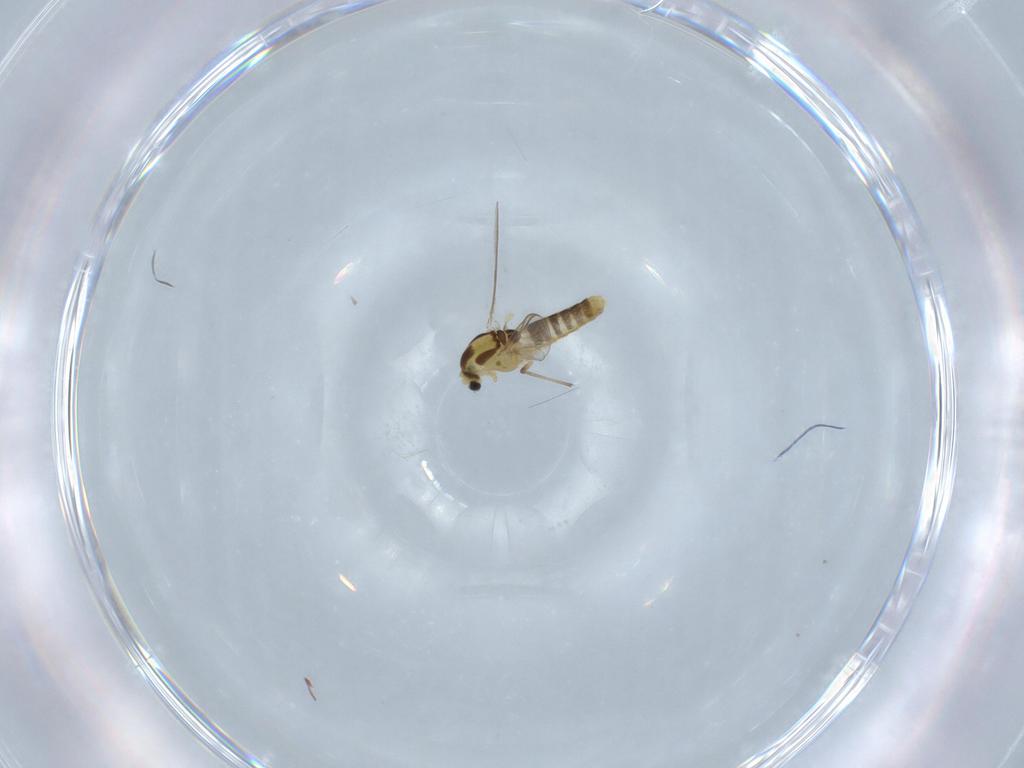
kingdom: Animalia
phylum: Arthropoda
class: Insecta
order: Diptera
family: Chironomidae
